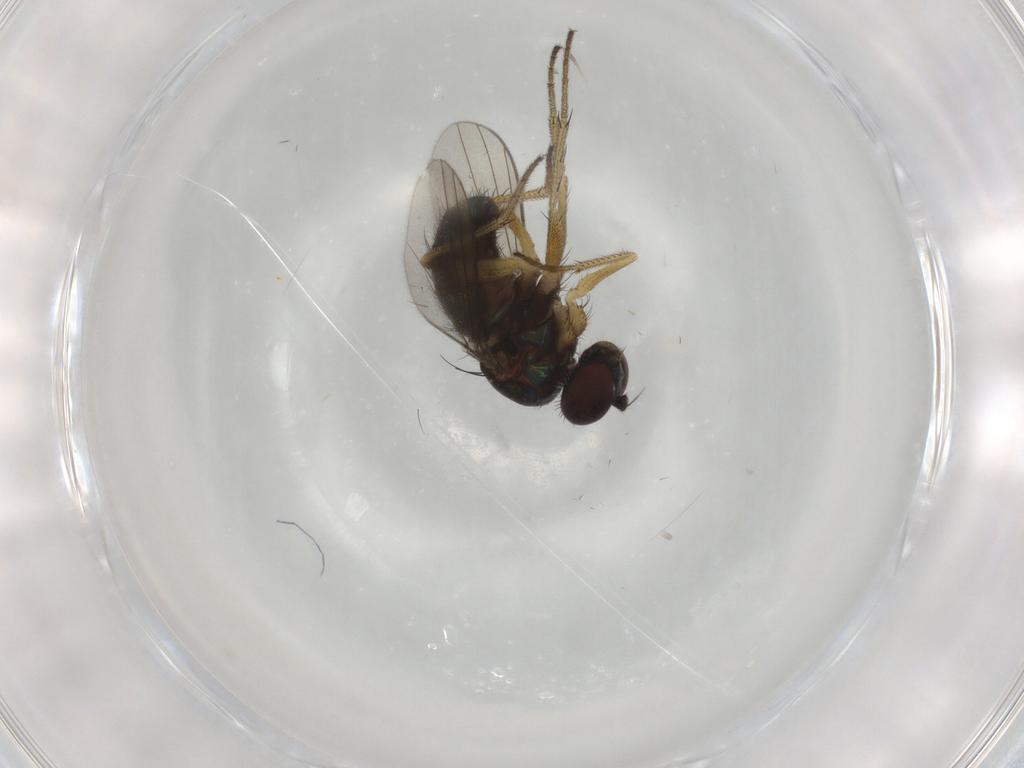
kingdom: Animalia
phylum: Arthropoda
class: Insecta
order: Diptera
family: Dolichopodidae
